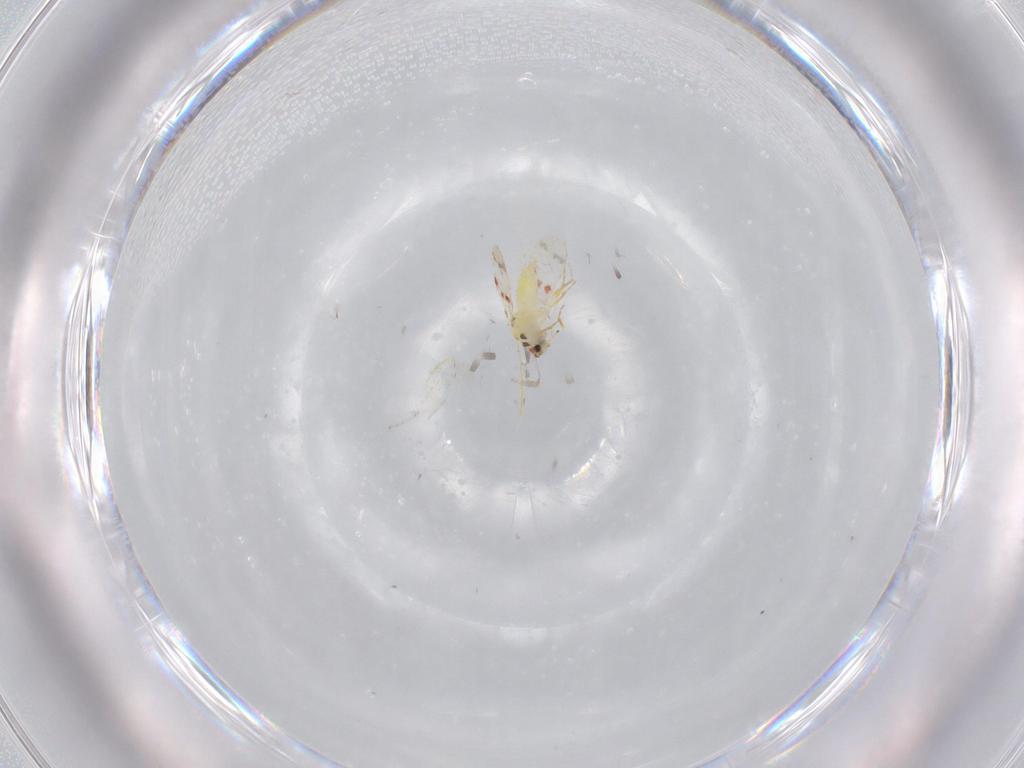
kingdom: Animalia
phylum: Arthropoda
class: Insecta
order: Hemiptera
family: Aleyrodidae
